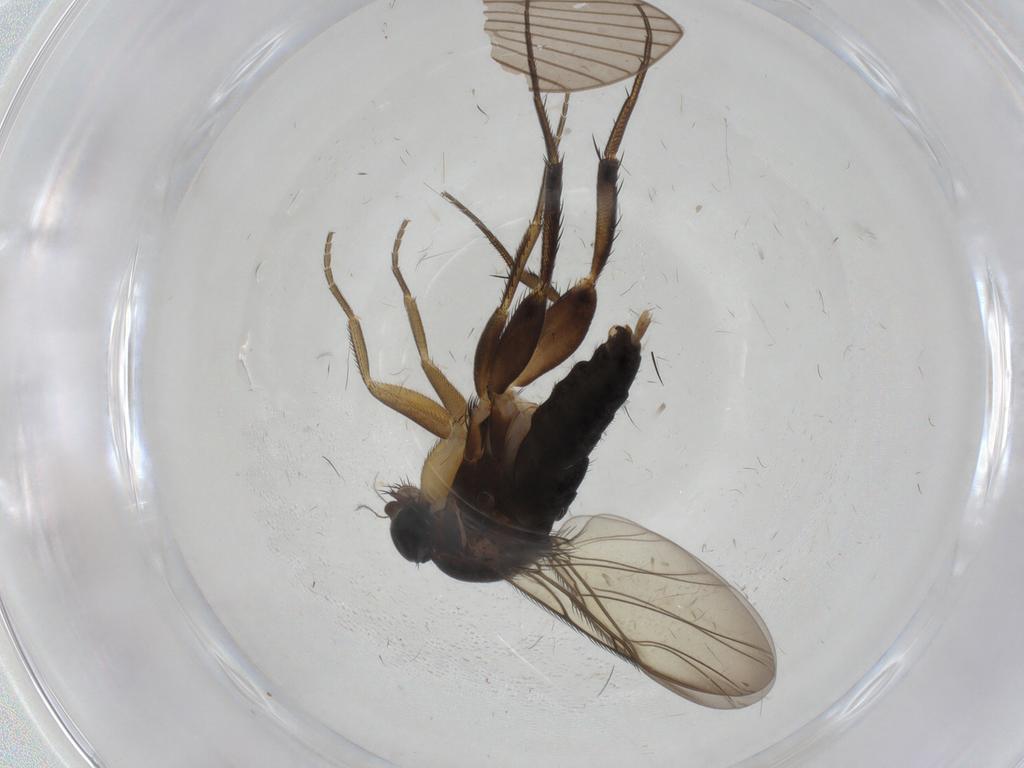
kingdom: Animalia
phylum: Arthropoda
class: Insecta
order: Diptera
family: Phoridae
